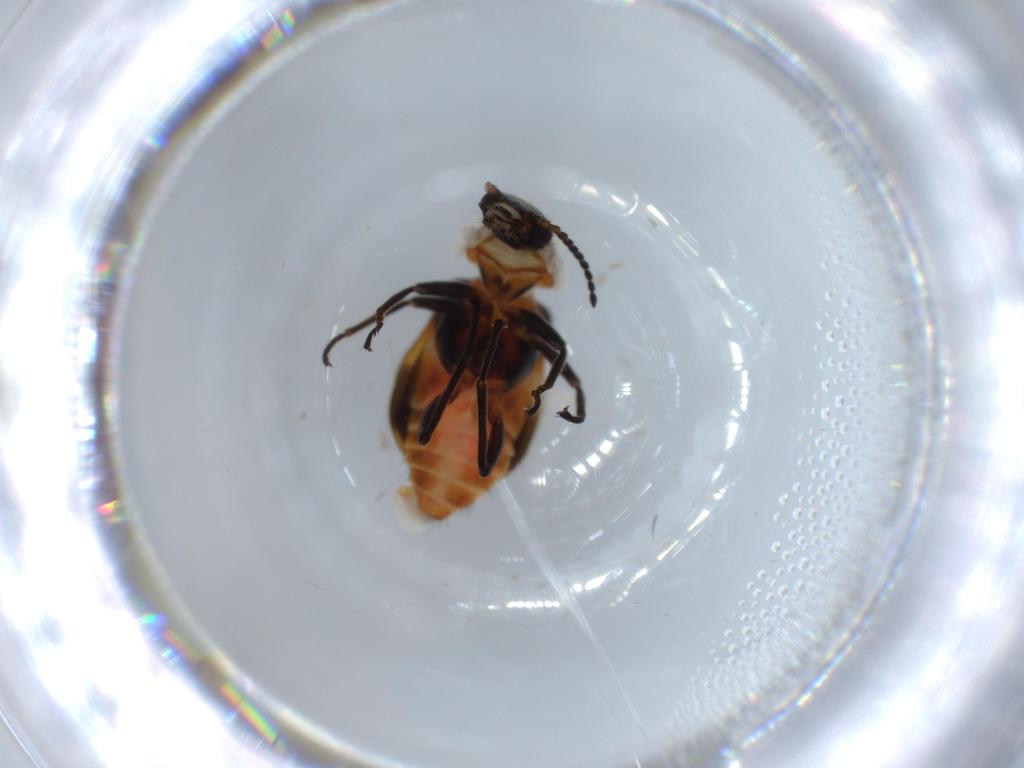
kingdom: Animalia
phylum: Arthropoda
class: Insecta
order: Coleoptera
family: Melyridae
